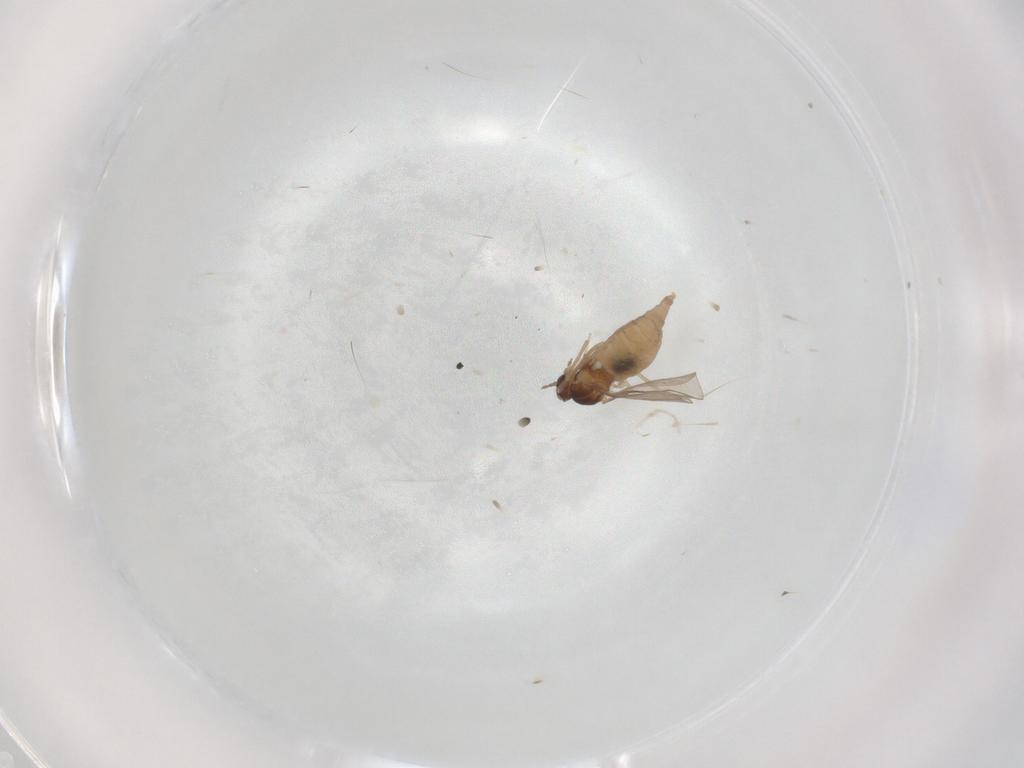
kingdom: Animalia
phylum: Arthropoda
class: Insecta
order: Diptera
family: Cecidomyiidae
